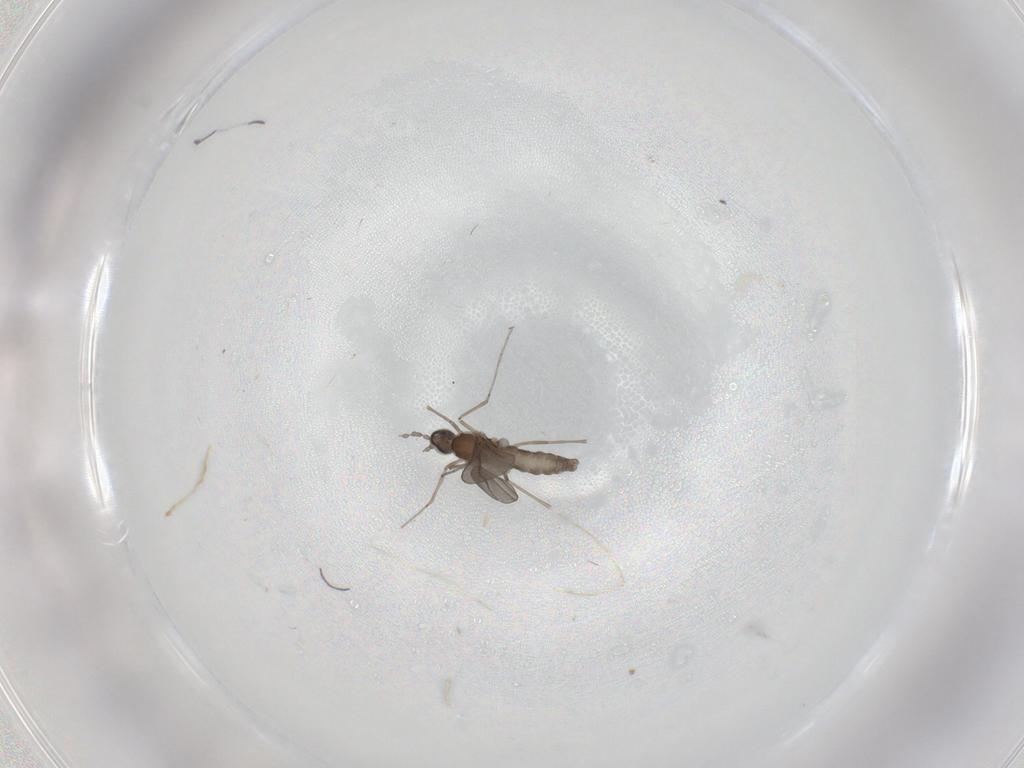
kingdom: Animalia
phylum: Arthropoda
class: Insecta
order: Diptera
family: Cecidomyiidae
